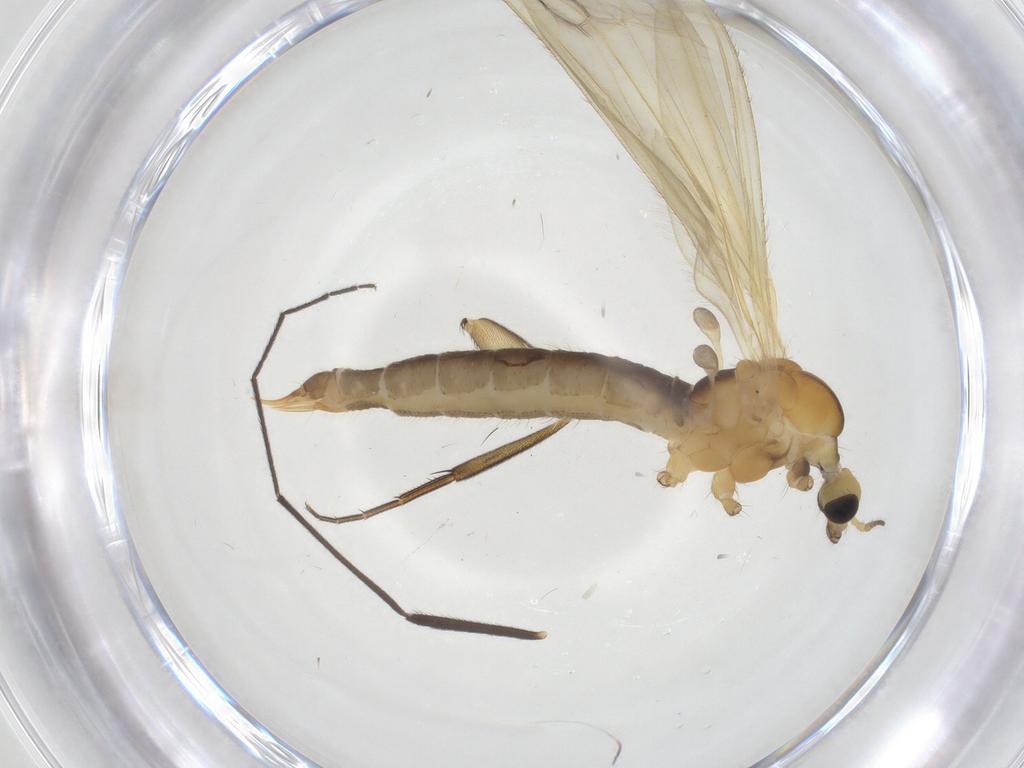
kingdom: Animalia
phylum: Arthropoda
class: Insecta
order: Diptera
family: Limoniidae
